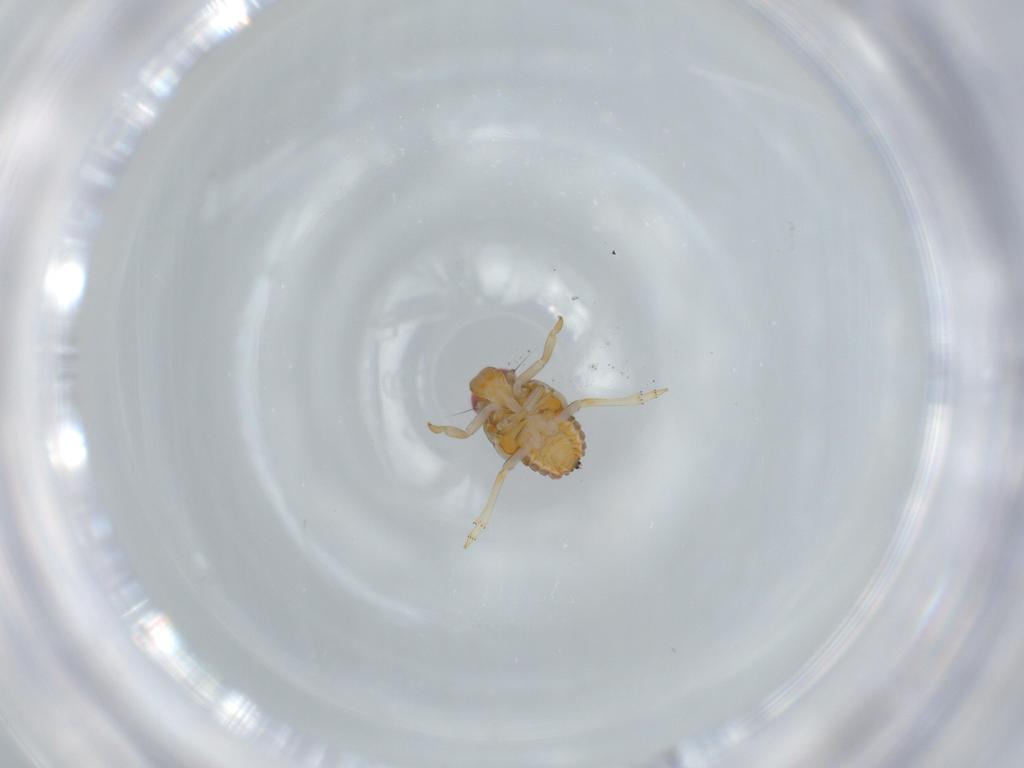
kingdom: Animalia
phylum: Arthropoda
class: Insecta
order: Hemiptera
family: Issidae
